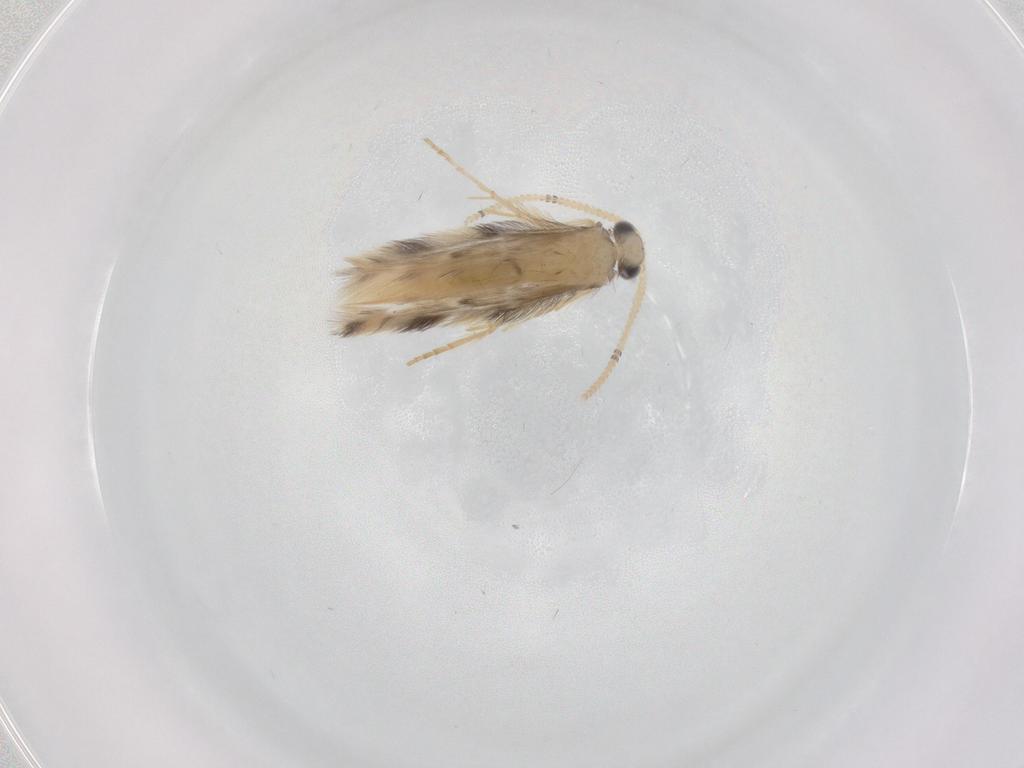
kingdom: Animalia
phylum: Arthropoda
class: Insecta
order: Trichoptera
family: Hydroptilidae
